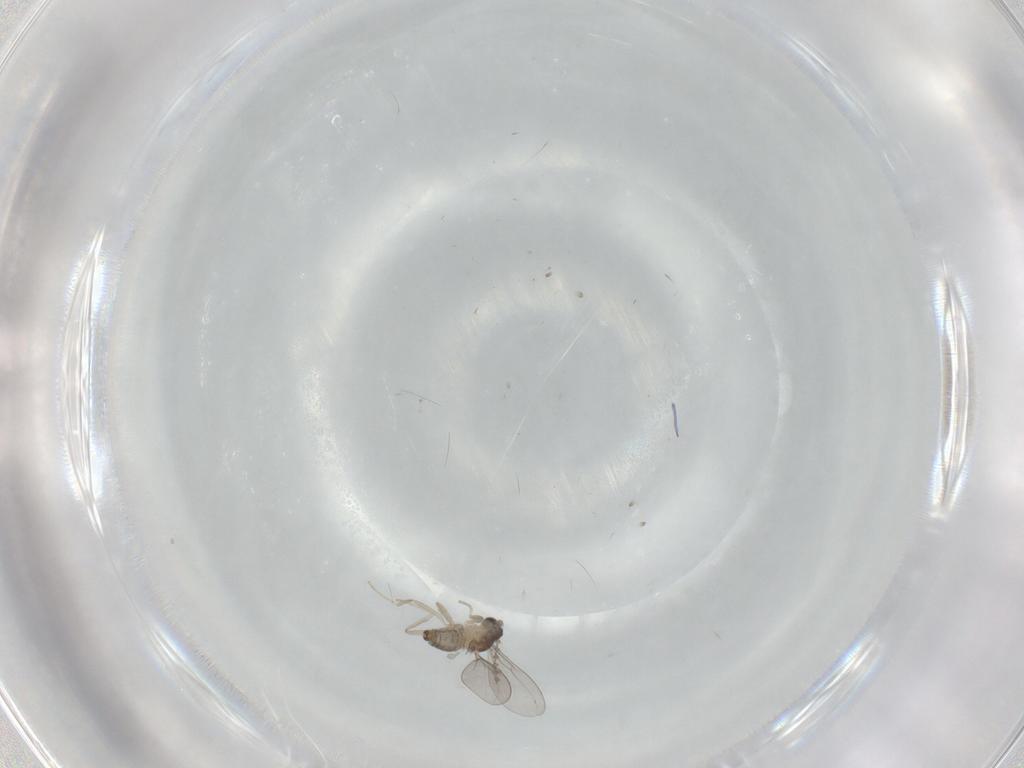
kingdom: Animalia
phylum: Arthropoda
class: Insecta
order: Diptera
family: Cecidomyiidae
